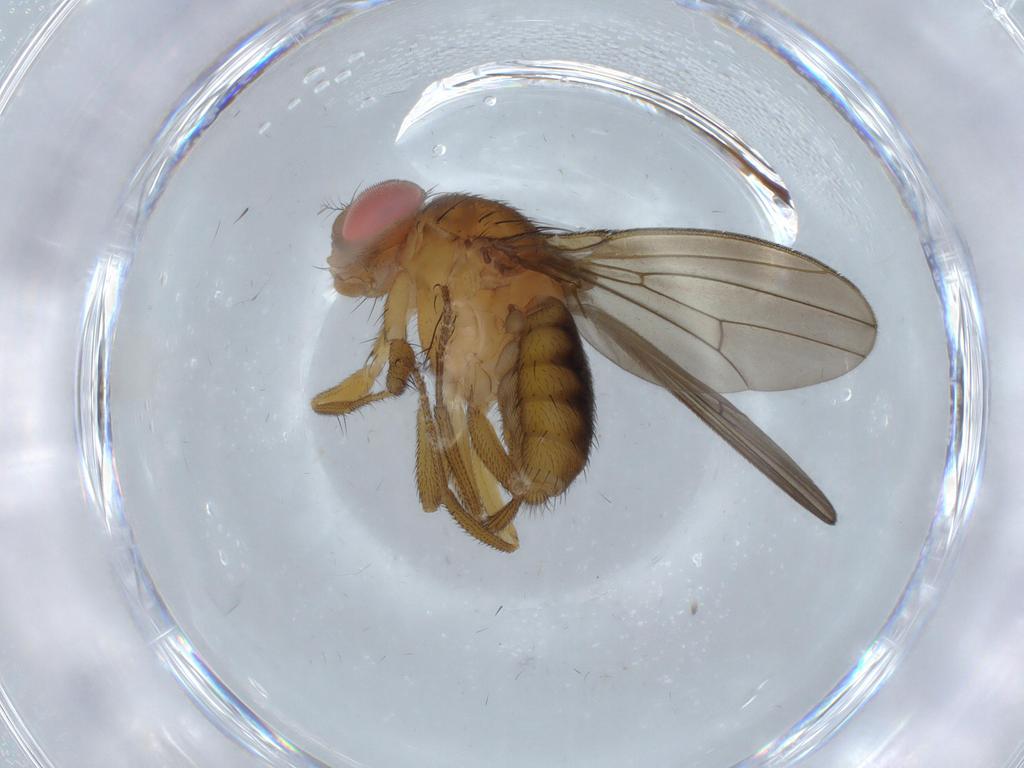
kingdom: Animalia
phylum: Arthropoda
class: Insecta
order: Diptera
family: Drosophilidae
